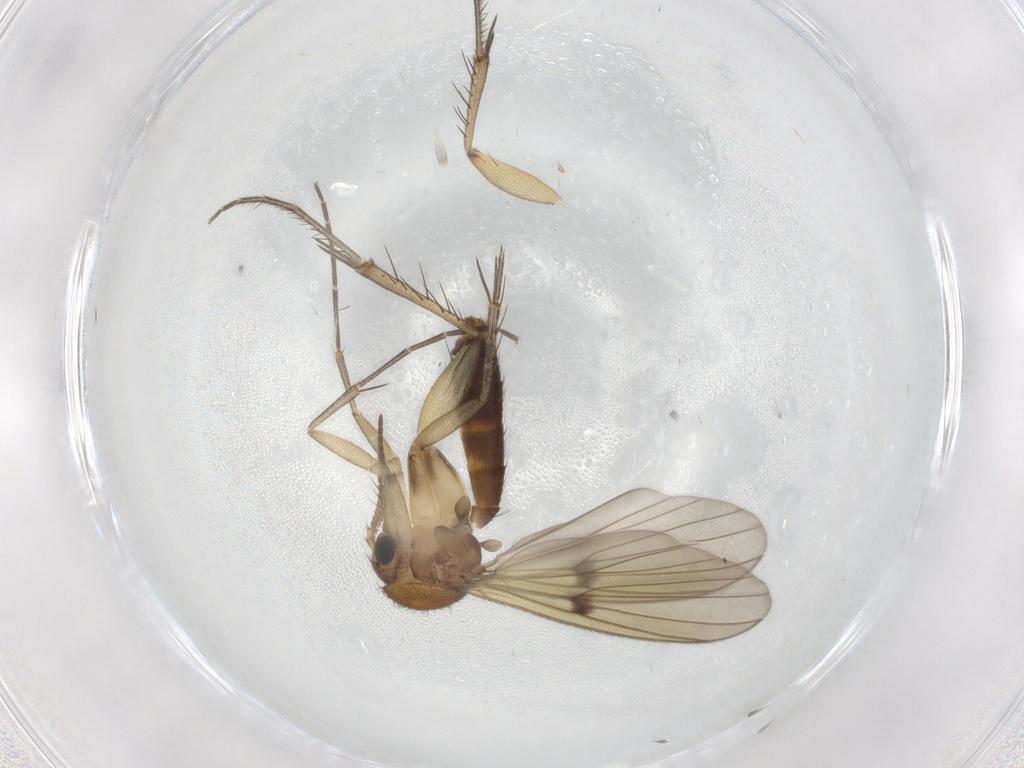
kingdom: Animalia
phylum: Arthropoda
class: Insecta
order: Diptera
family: Mycetophilidae
